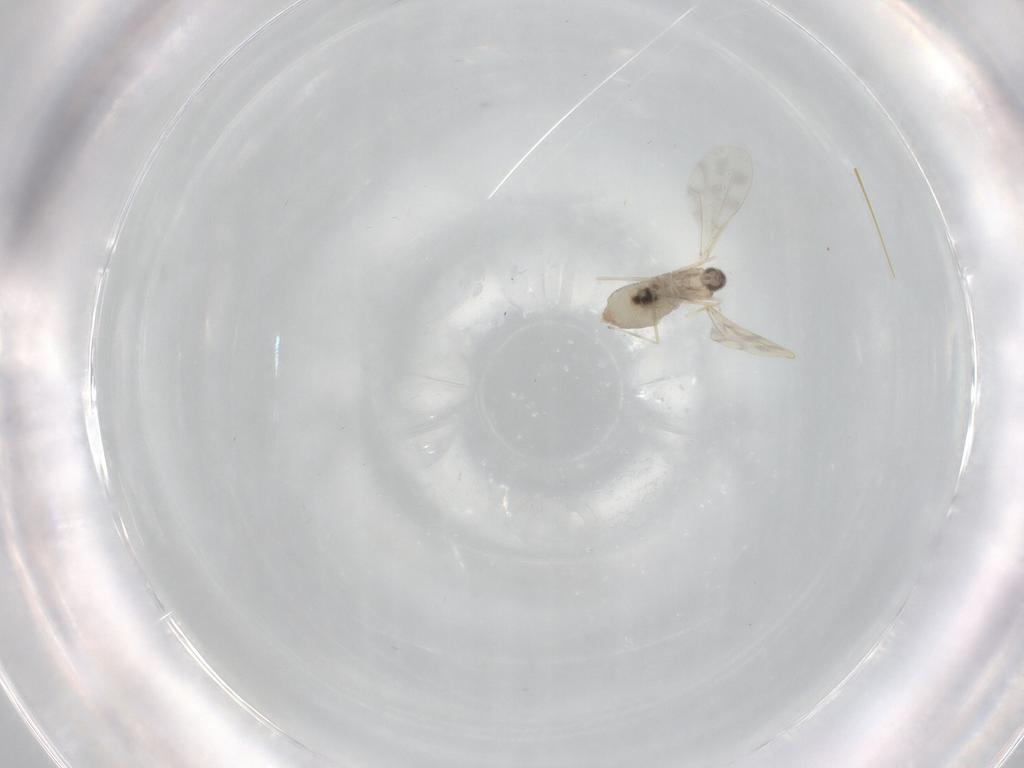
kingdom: Animalia
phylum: Arthropoda
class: Insecta
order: Diptera
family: Cecidomyiidae
